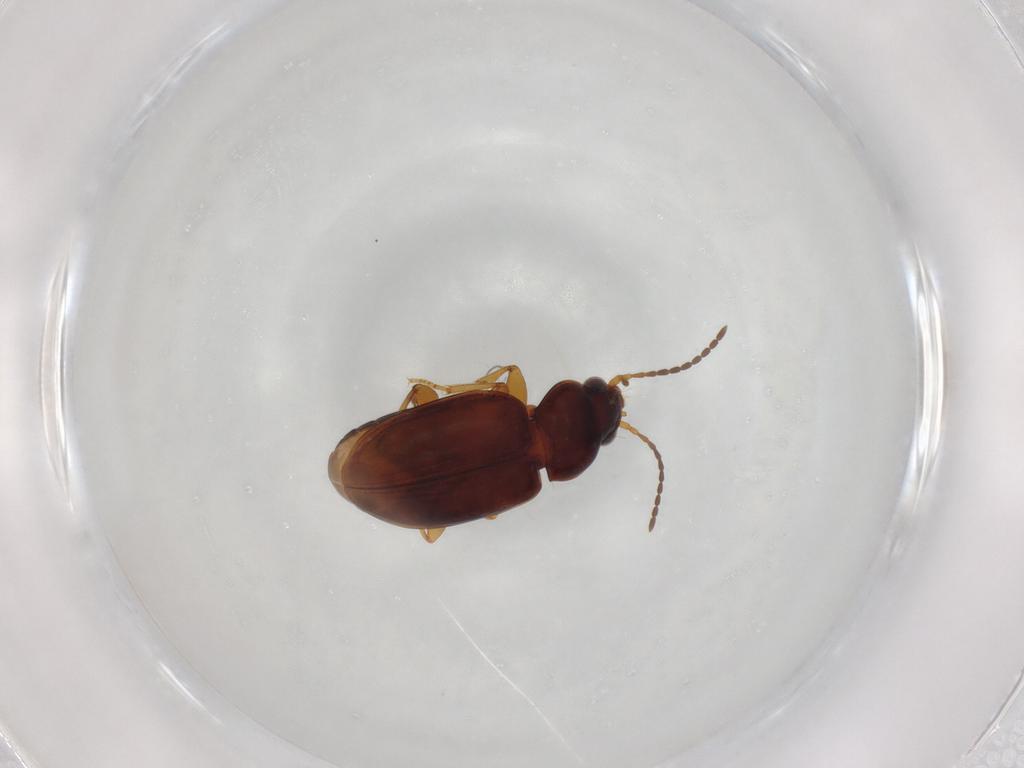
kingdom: Animalia
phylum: Arthropoda
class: Insecta
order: Coleoptera
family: Carabidae
